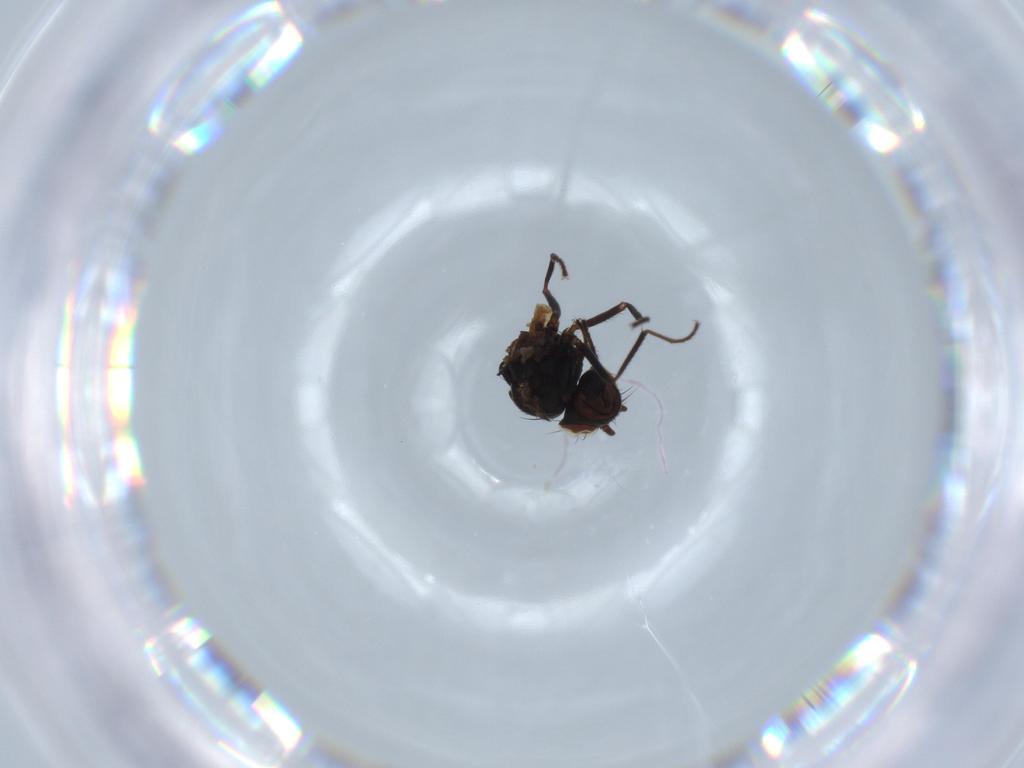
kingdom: Animalia
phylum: Arthropoda
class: Insecta
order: Diptera
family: Ephydridae
